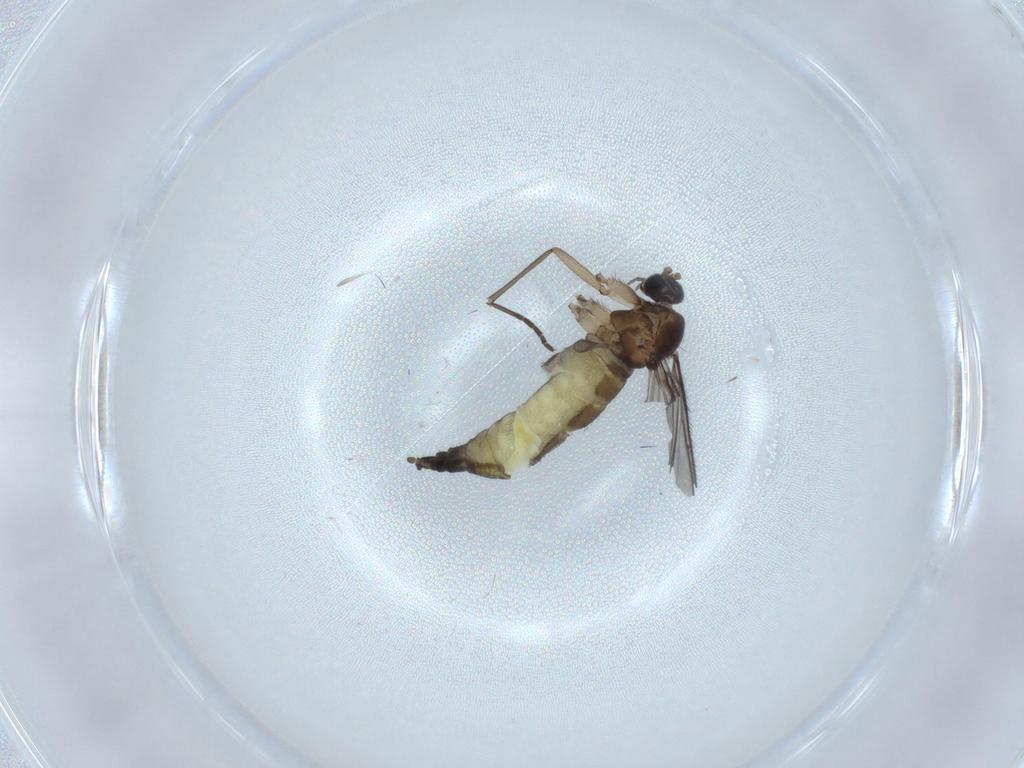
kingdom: Animalia
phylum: Arthropoda
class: Insecta
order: Diptera
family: Sciaridae
